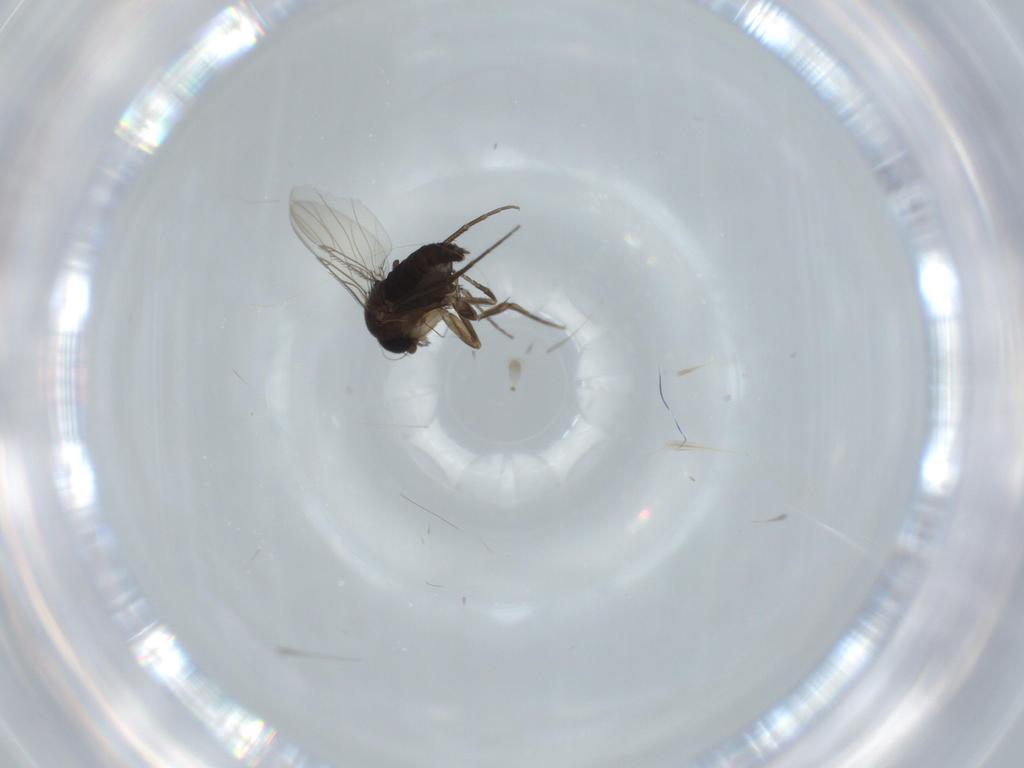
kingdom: Animalia
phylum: Arthropoda
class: Insecta
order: Diptera
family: Phoridae
